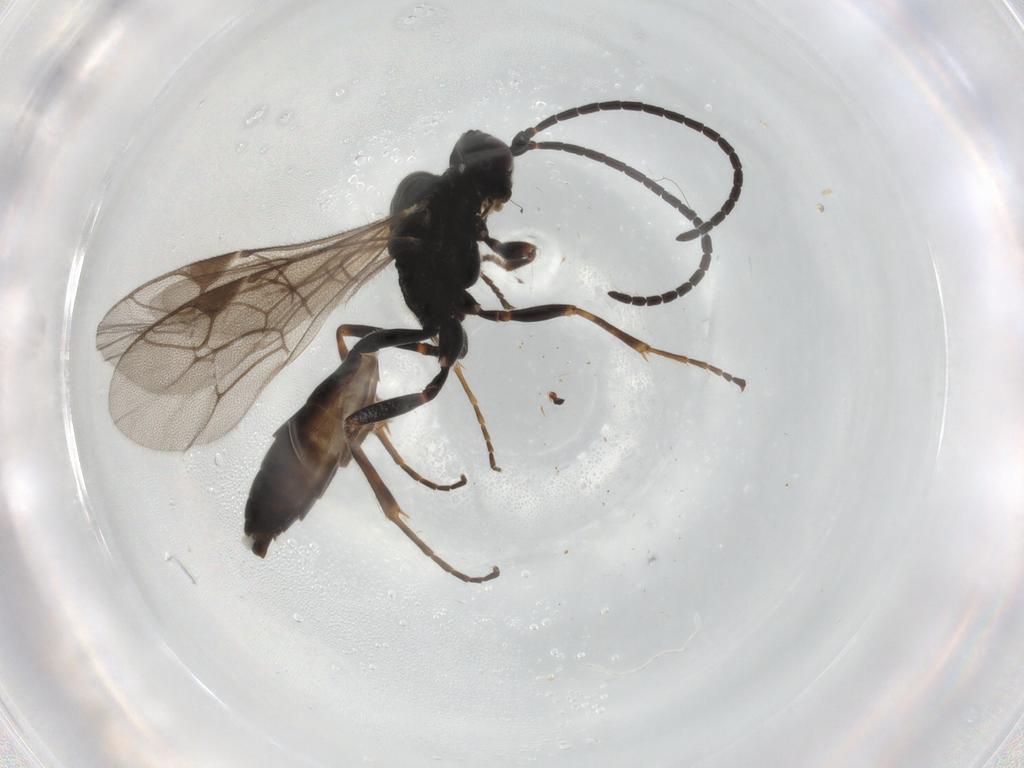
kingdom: Animalia
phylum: Arthropoda
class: Insecta
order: Hymenoptera
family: Ichneumonidae
